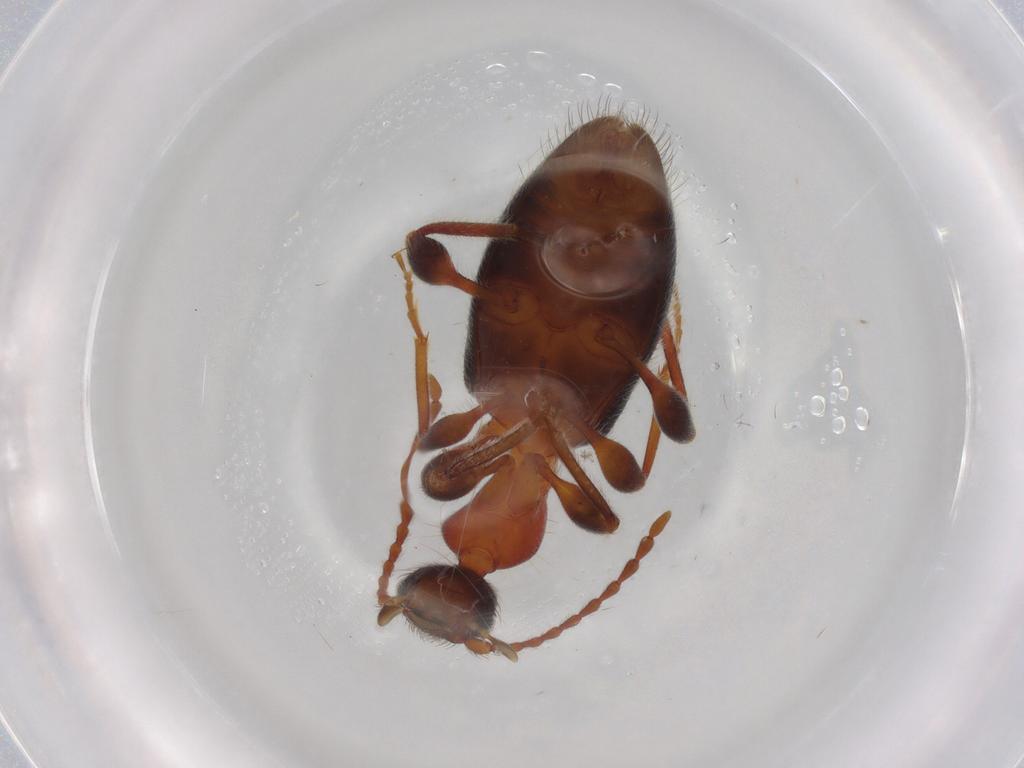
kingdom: Animalia
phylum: Arthropoda
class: Insecta
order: Coleoptera
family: Anthicidae
